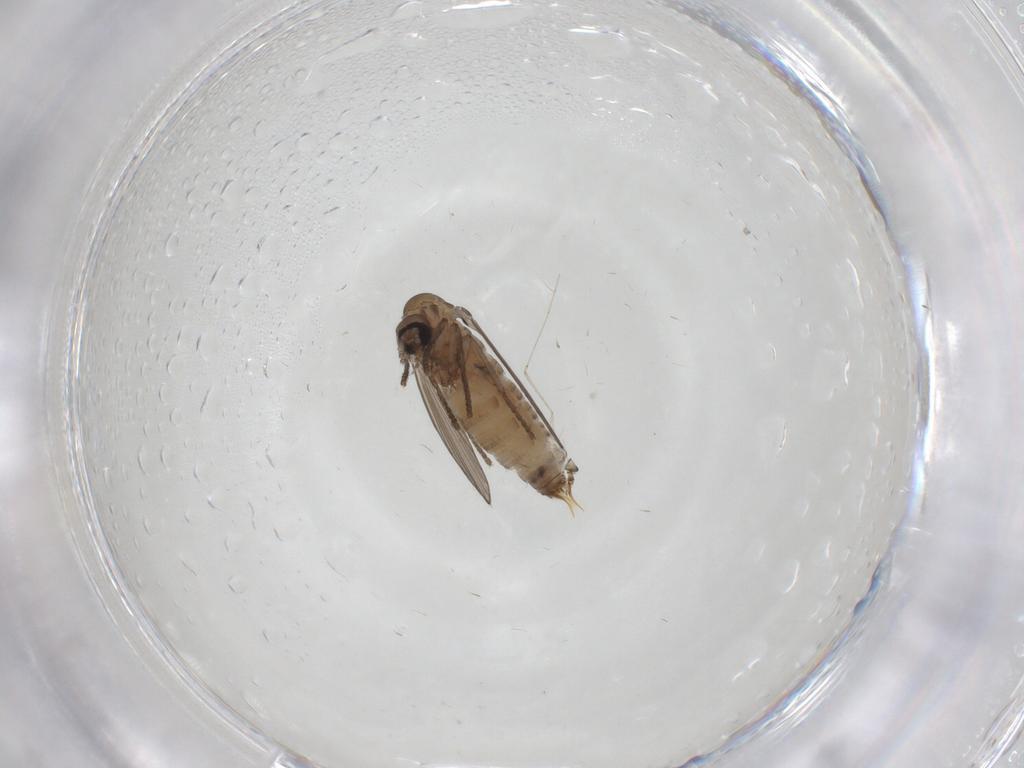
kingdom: Animalia
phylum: Arthropoda
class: Insecta
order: Diptera
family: Psychodidae
